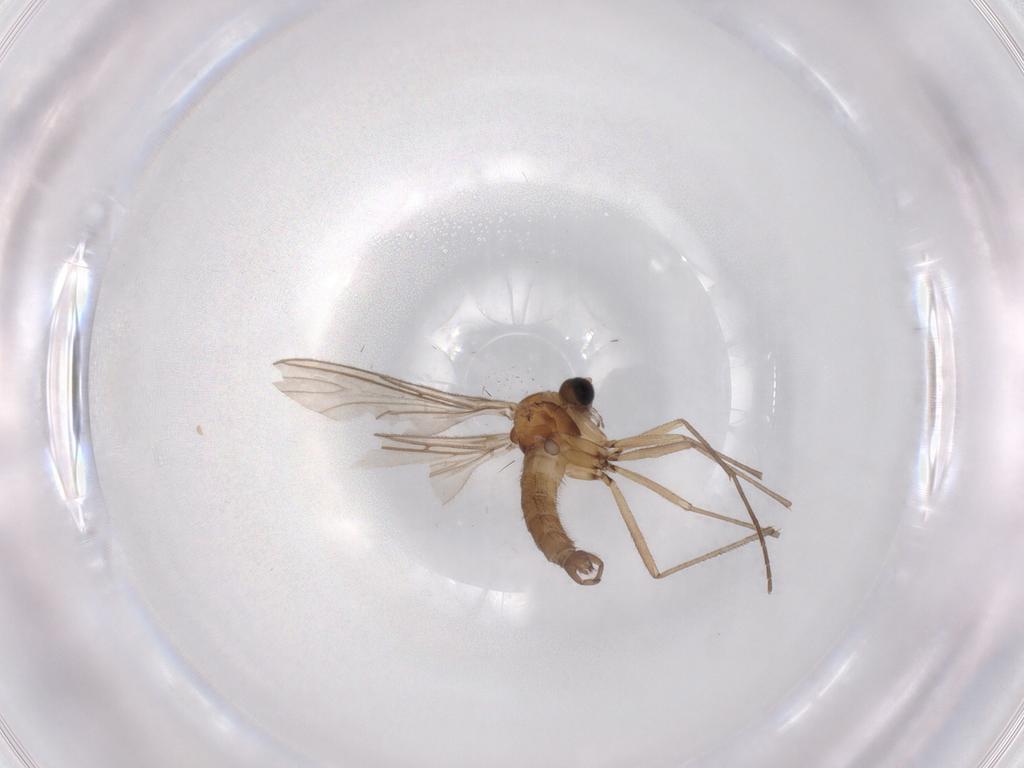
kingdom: Animalia
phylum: Arthropoda
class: Insecta
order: Diptera
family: Sciaridae
